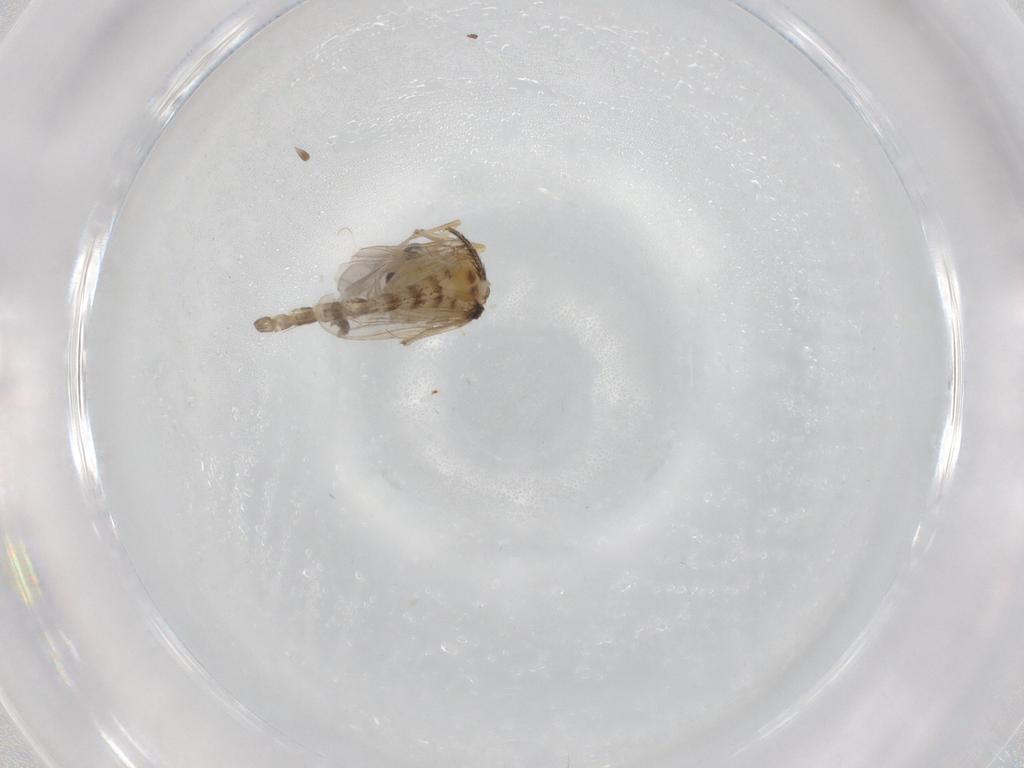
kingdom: Animalia
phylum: Arthropoda
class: Insecta
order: Diptera
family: Chironomidae
